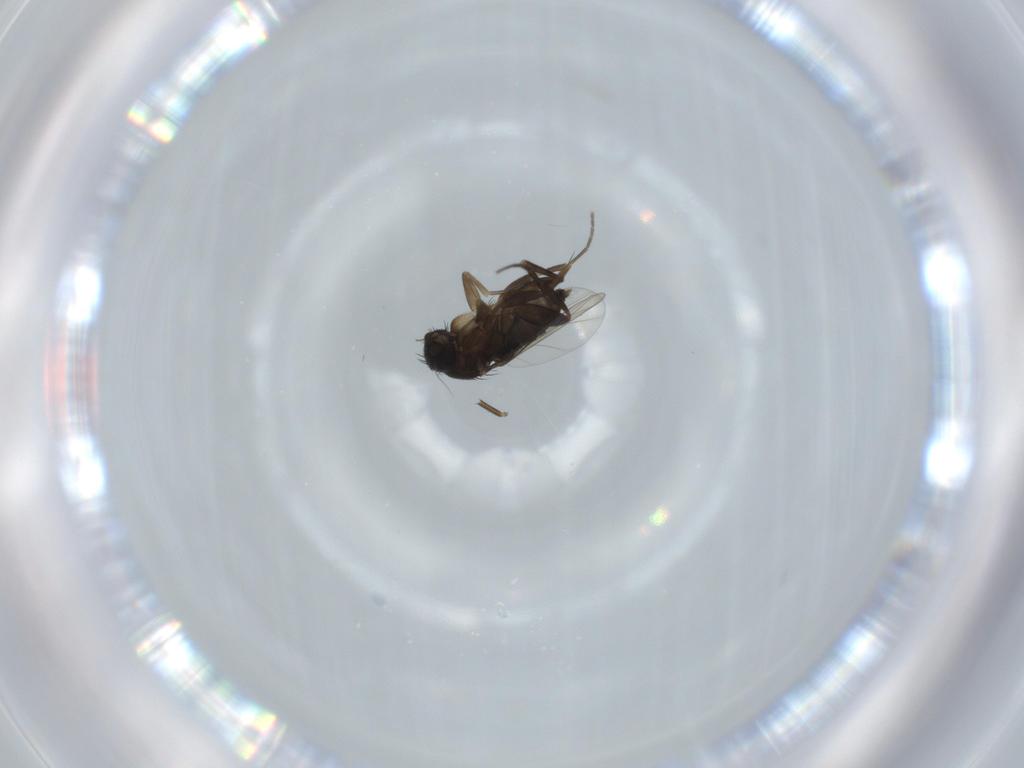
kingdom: Animalia
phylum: Arthropoda
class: Insecta
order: Diptera
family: Phoridae
